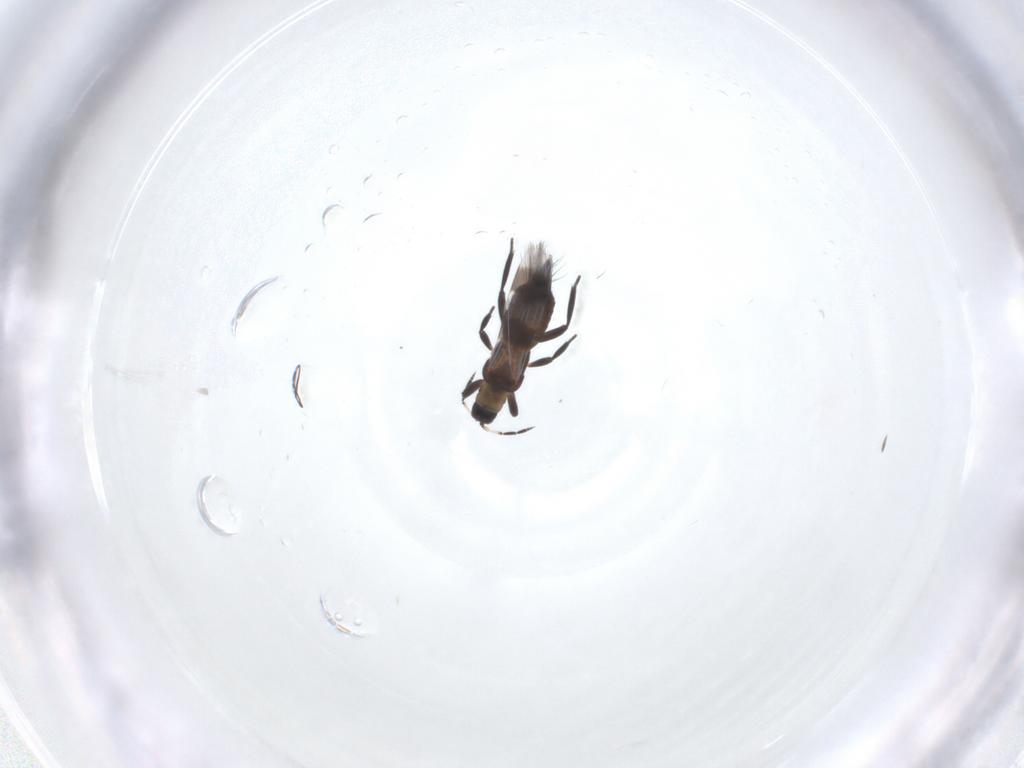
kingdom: Animalia
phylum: Arthropoda
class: Insecta
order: Thysanoptera
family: Aeolothripidae
